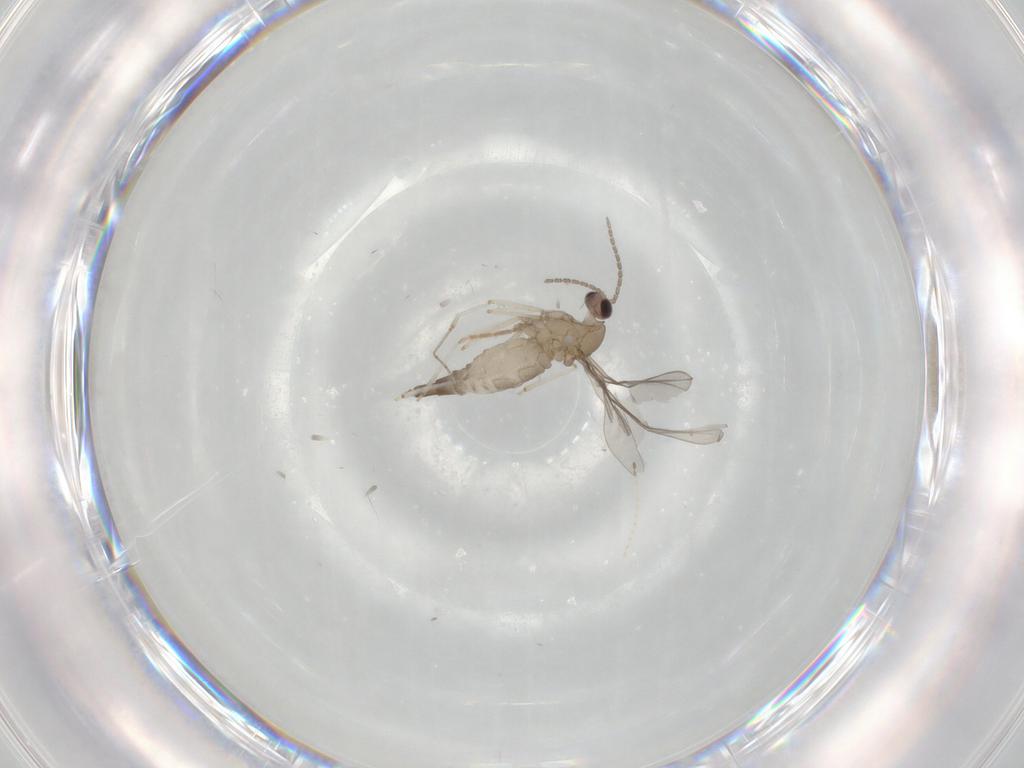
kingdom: Animalia
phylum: Arthropoda
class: Insecta
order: Diptera
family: Cecidomyiidae
